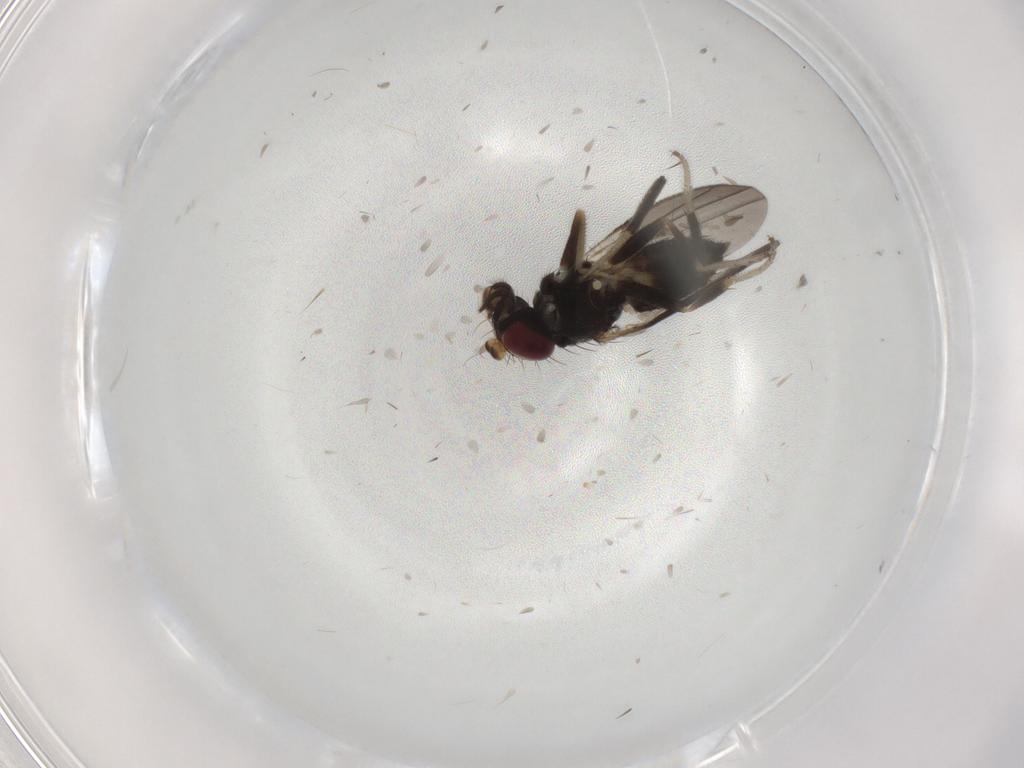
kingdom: Animalia
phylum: Arthropoda
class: Insecta
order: Diptera
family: Clusiidae
